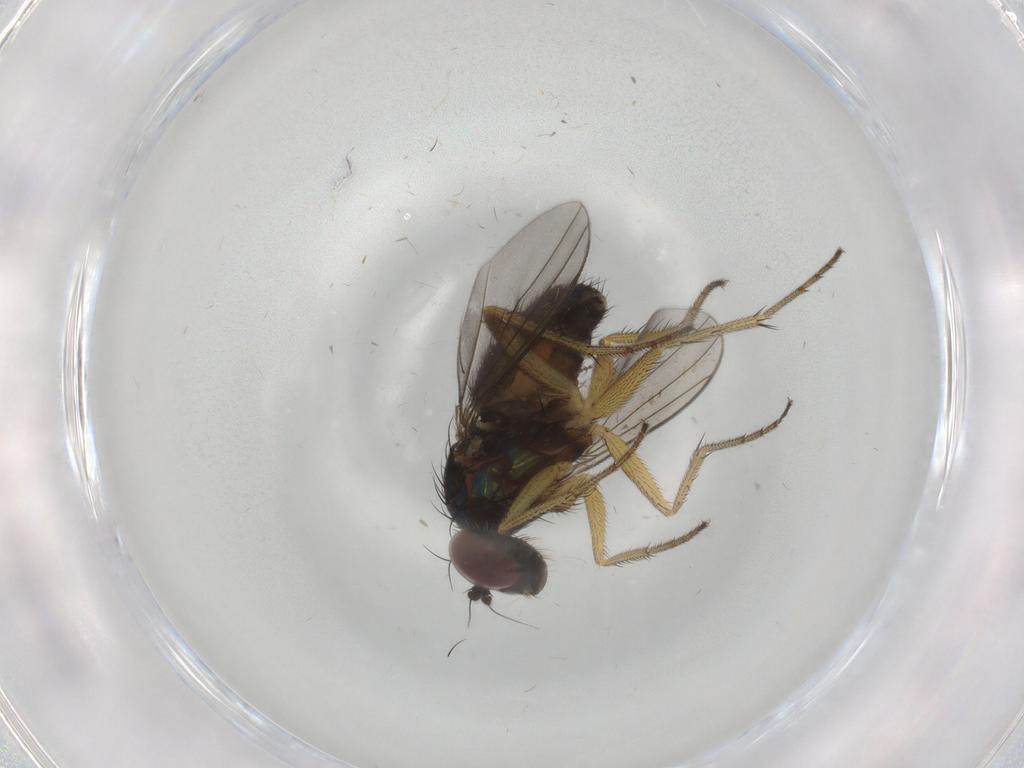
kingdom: Animalia
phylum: Arthropoda
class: Insecta
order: Diptera
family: Dolichopodidae
